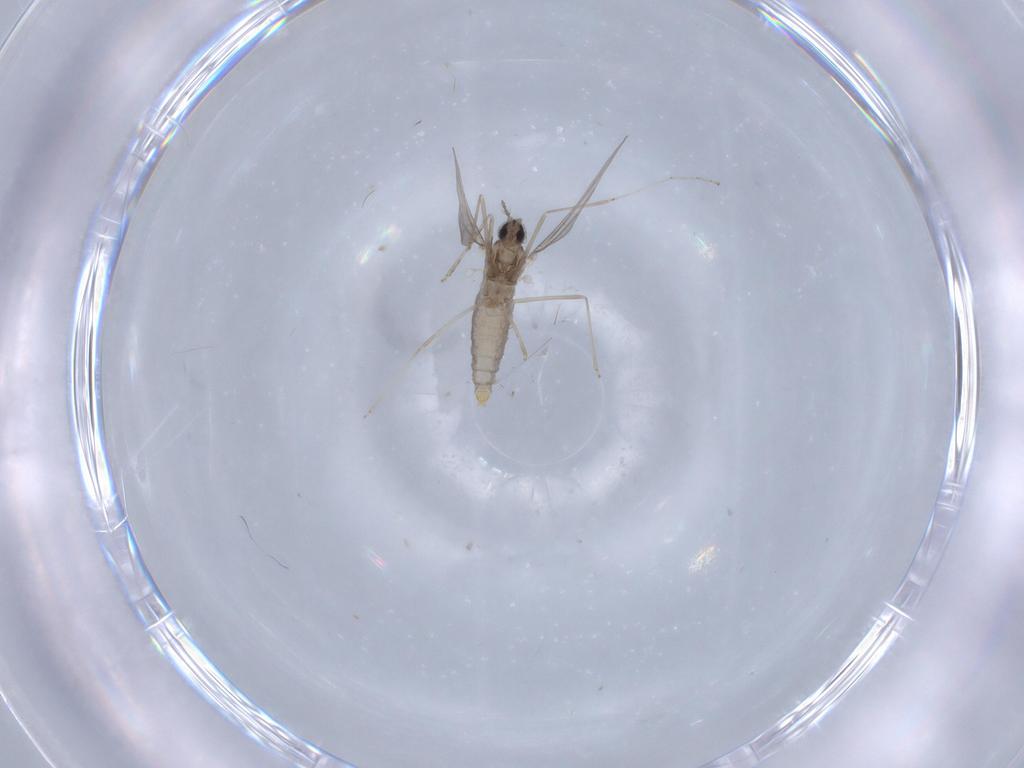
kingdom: Animalia
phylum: Arthropoda
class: Insecta
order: Diptera
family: Cecidomyiidae
